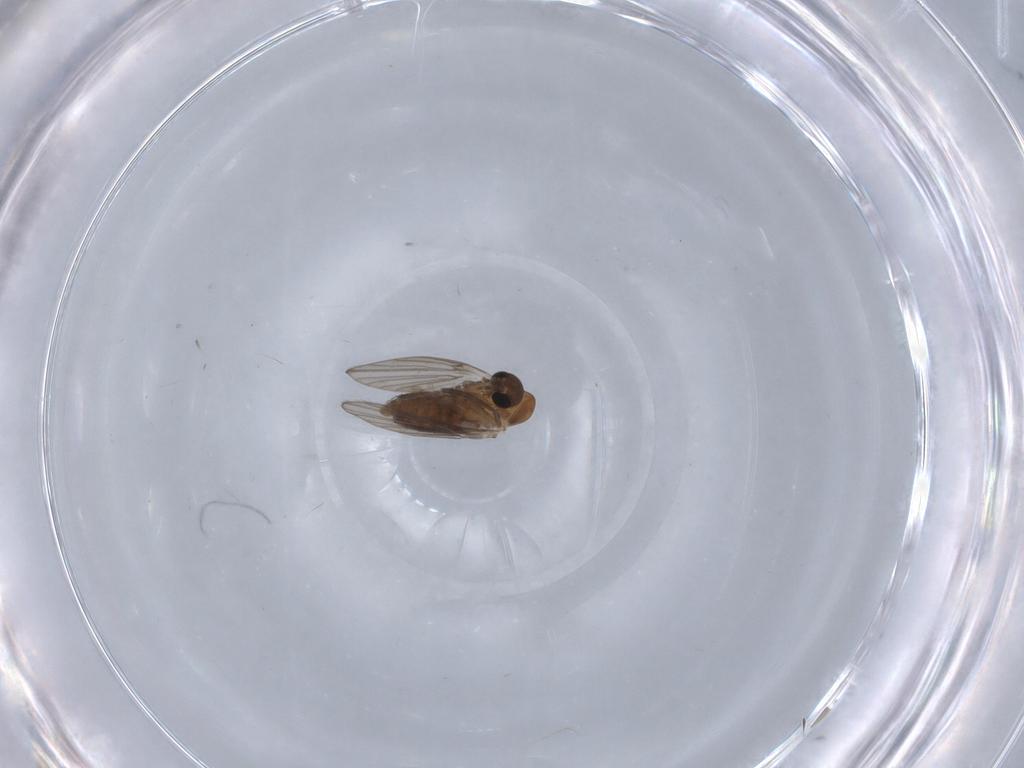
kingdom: Animalia
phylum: Arthropoda
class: Insecta
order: Diptera
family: Psychodidae
